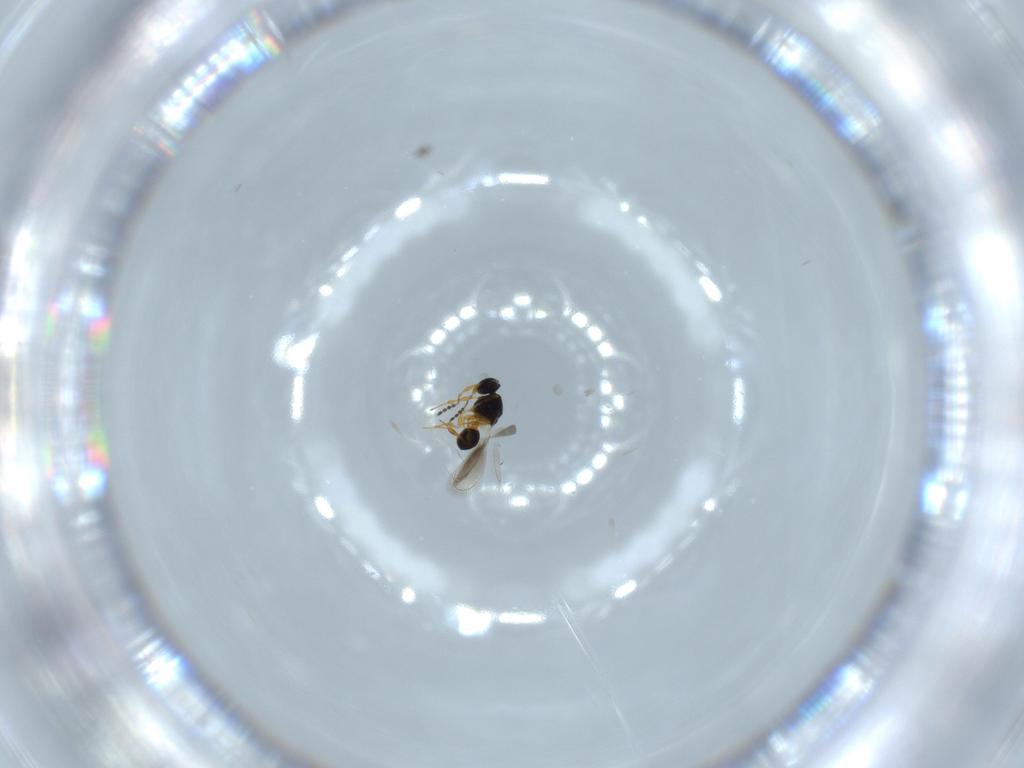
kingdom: Animalia
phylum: Arthropoda
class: Insecta
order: Hymenoptera
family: Platygastridae
